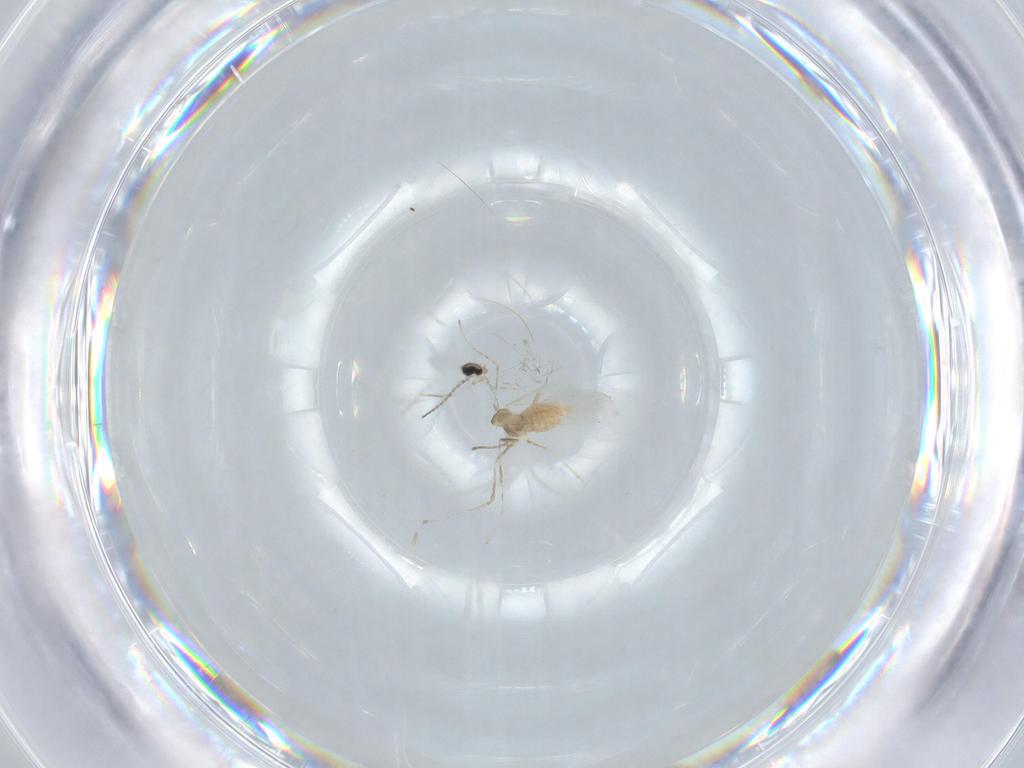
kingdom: Animalia
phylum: Arthropoda
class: Insecta
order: Diptera
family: Cecidomyiidae
